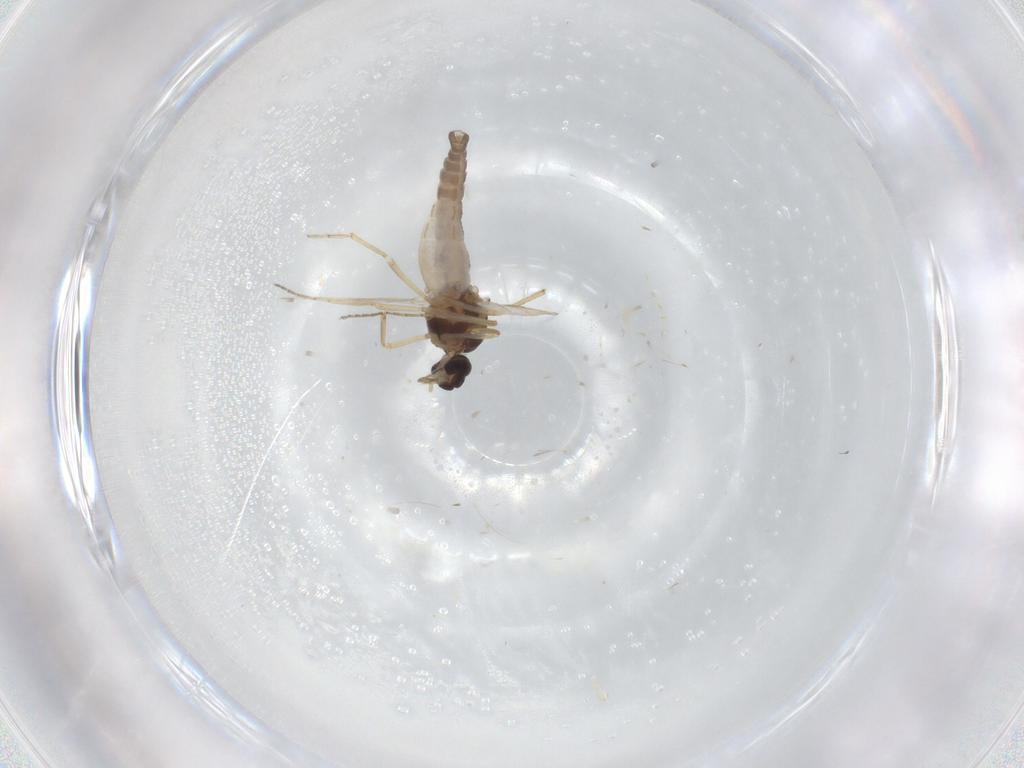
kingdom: Animalia
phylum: Arthropoda
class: Insecta
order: Diptera
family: Ceratopogonidae
